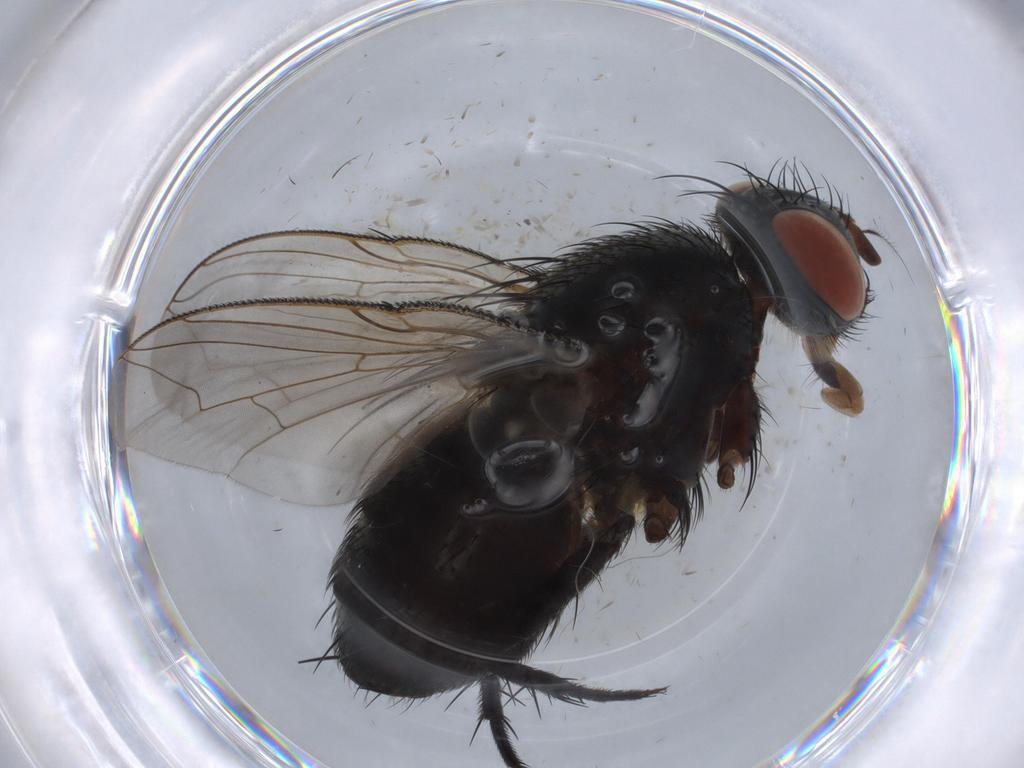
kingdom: Animalia
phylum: Arthropoda
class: Insecta
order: Diptera
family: Sarcophagidae
